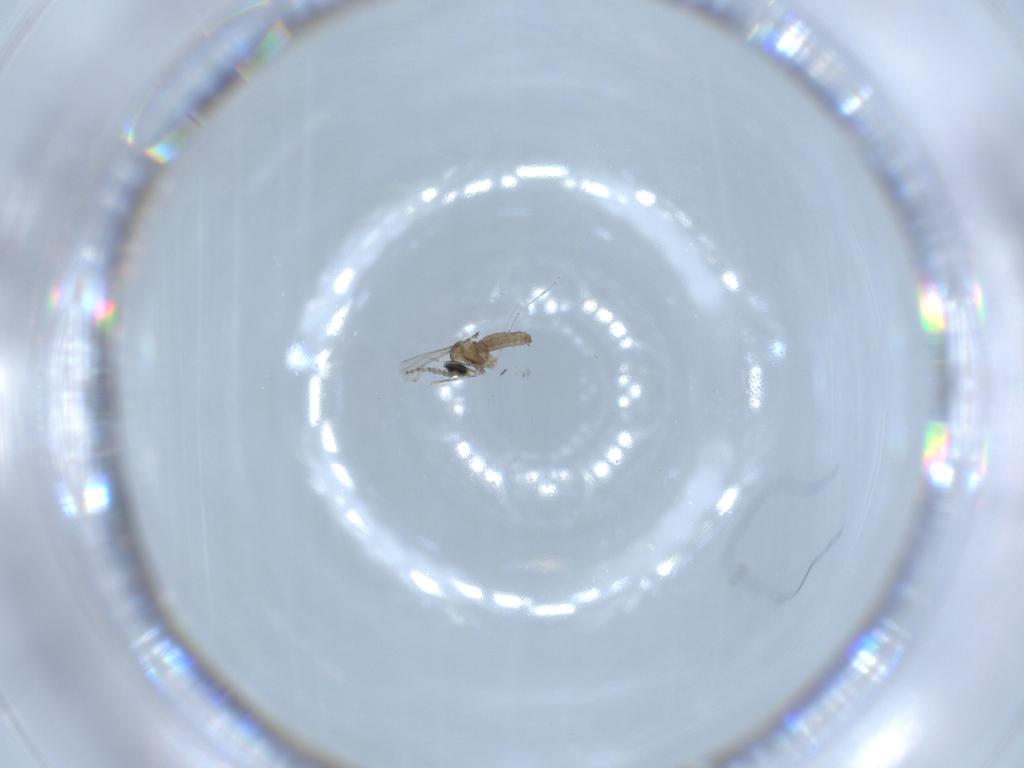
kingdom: Animalia
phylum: Arthropoda
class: Insecta
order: Diptera
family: Cecidomyiidae
